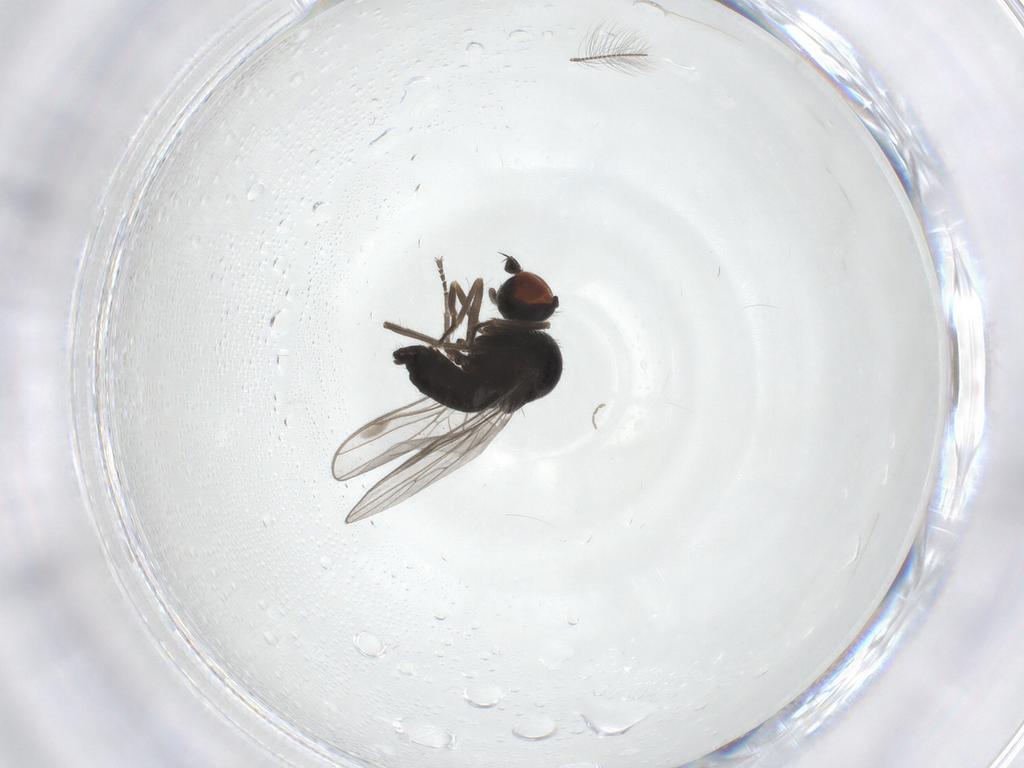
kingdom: Animalia
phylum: Arthropoda
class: Insecta
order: Diptera
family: Hybotidae
